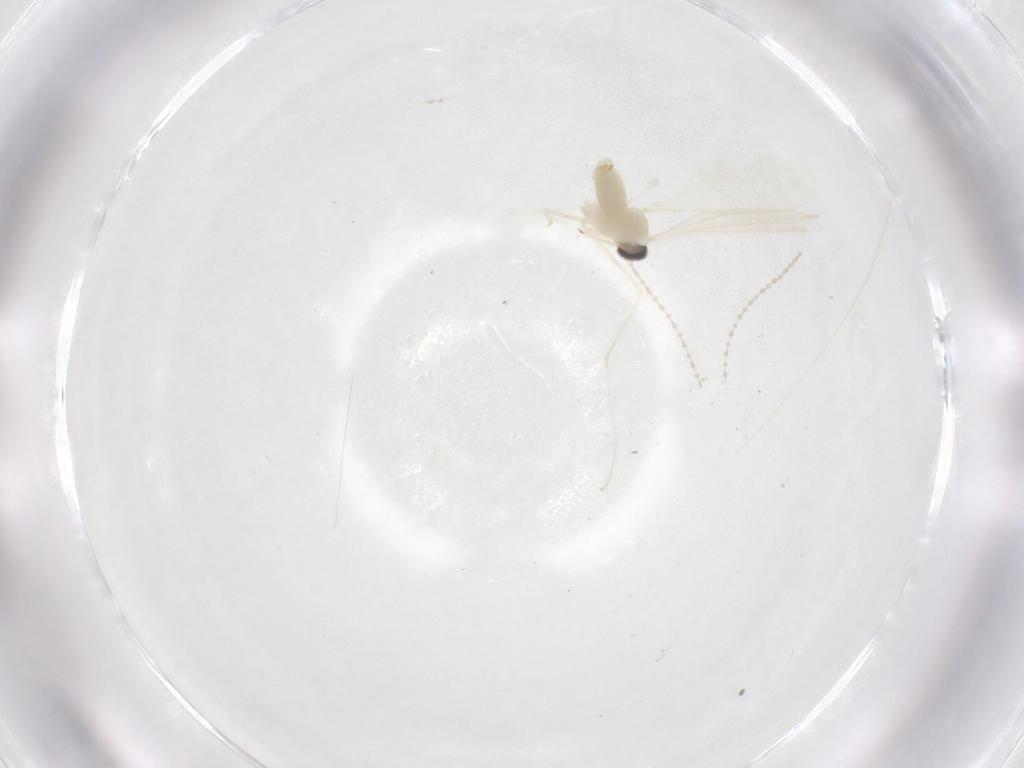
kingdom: Animalia
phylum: Arthropoda
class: Insecta
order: Diptera
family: Cecidomyiidae
